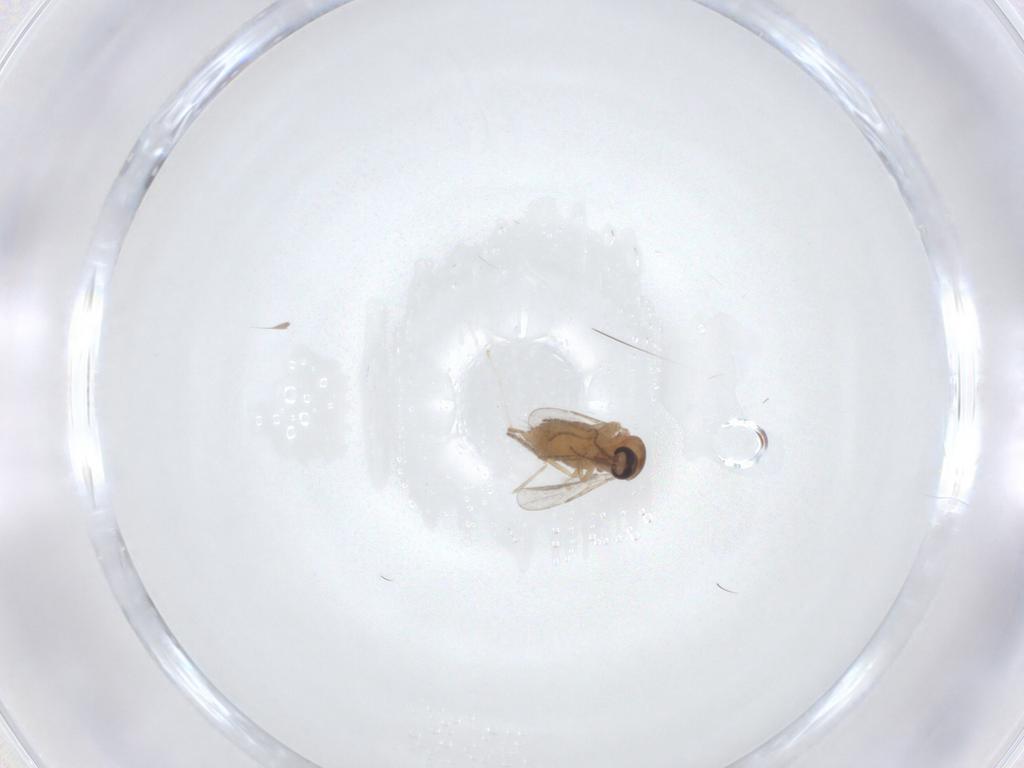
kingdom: Animalia
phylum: Arthropoda
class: Insecta
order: Diptera
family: Ceratopogonidae
